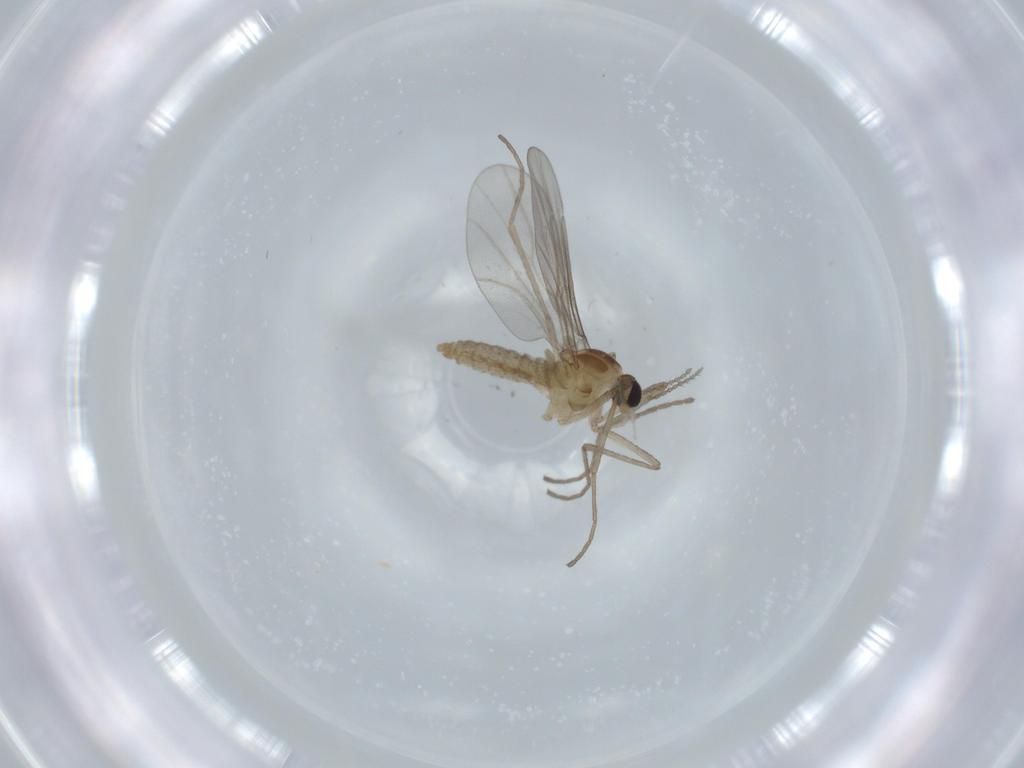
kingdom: Animalia
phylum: Arthropoda
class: Insecta
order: Diptera
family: Cecidomyiidae
